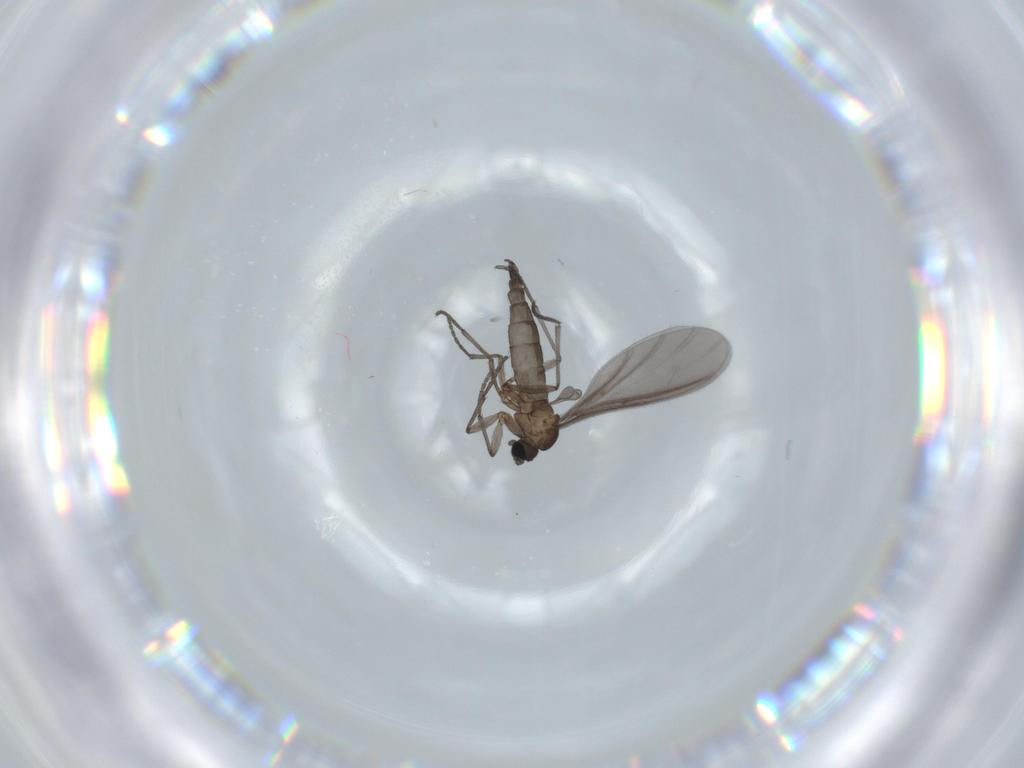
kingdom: Animalia
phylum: Arthropoda
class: Insecta
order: Diptera
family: Sciaridae
